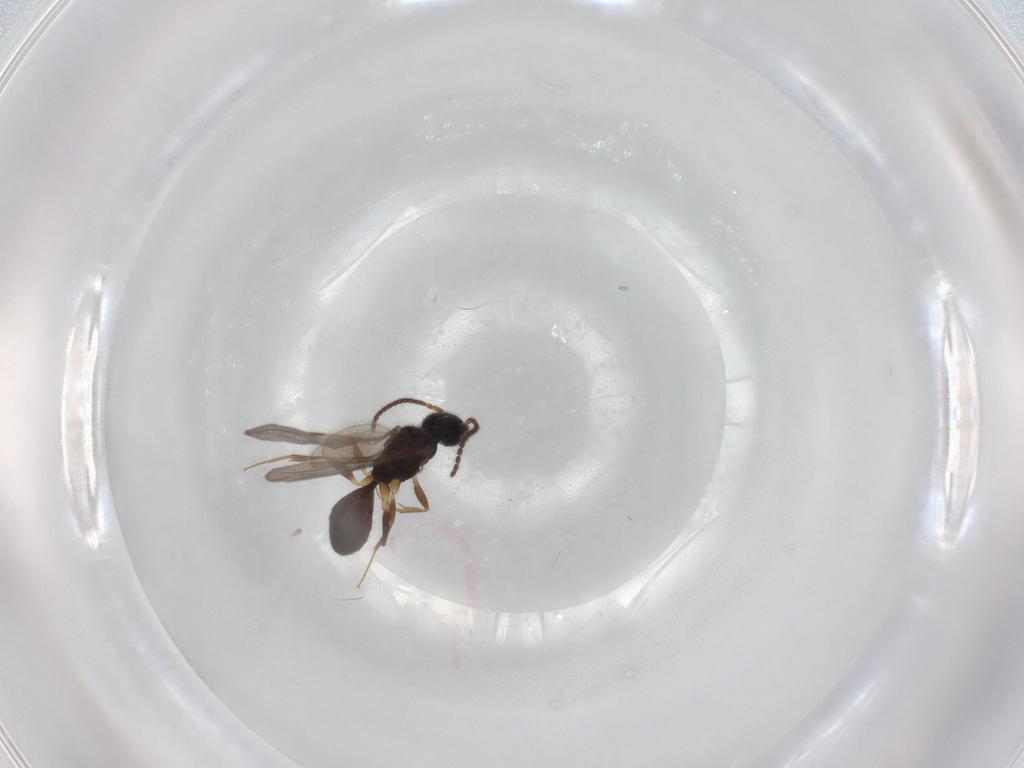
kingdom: Animalia
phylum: Arthropoda
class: Insecta
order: Hymenoptera
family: Formicidae
